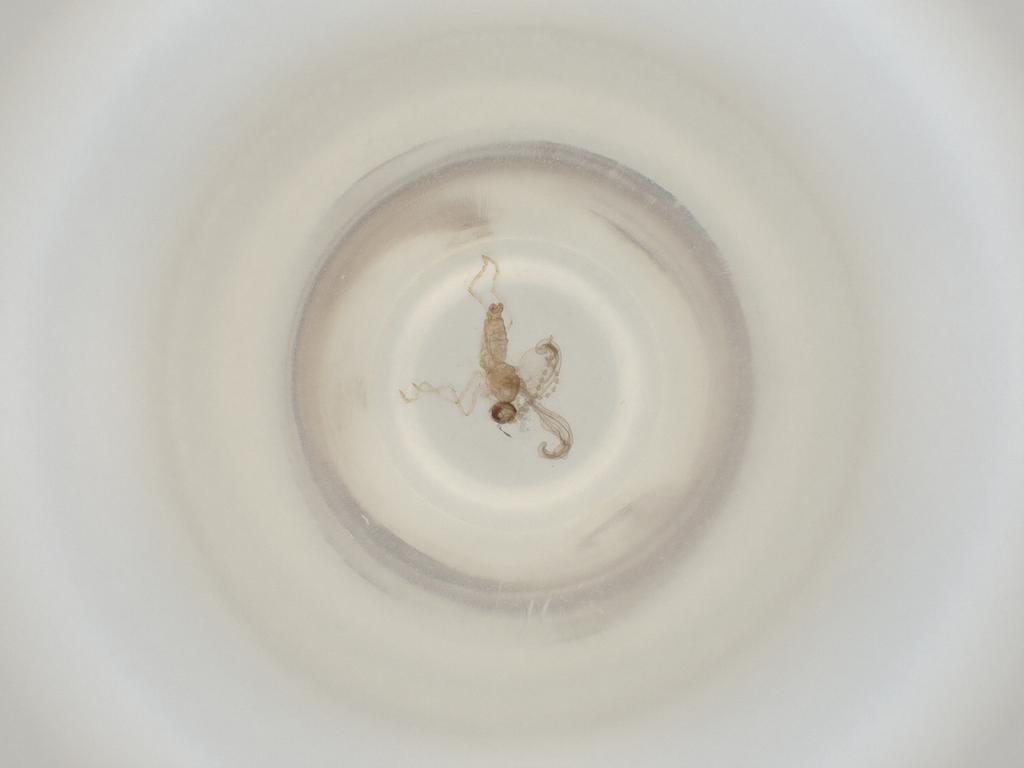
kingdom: Animalia
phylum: Arthropoda
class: Insecta
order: Diptera
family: Cecidomyiidae
